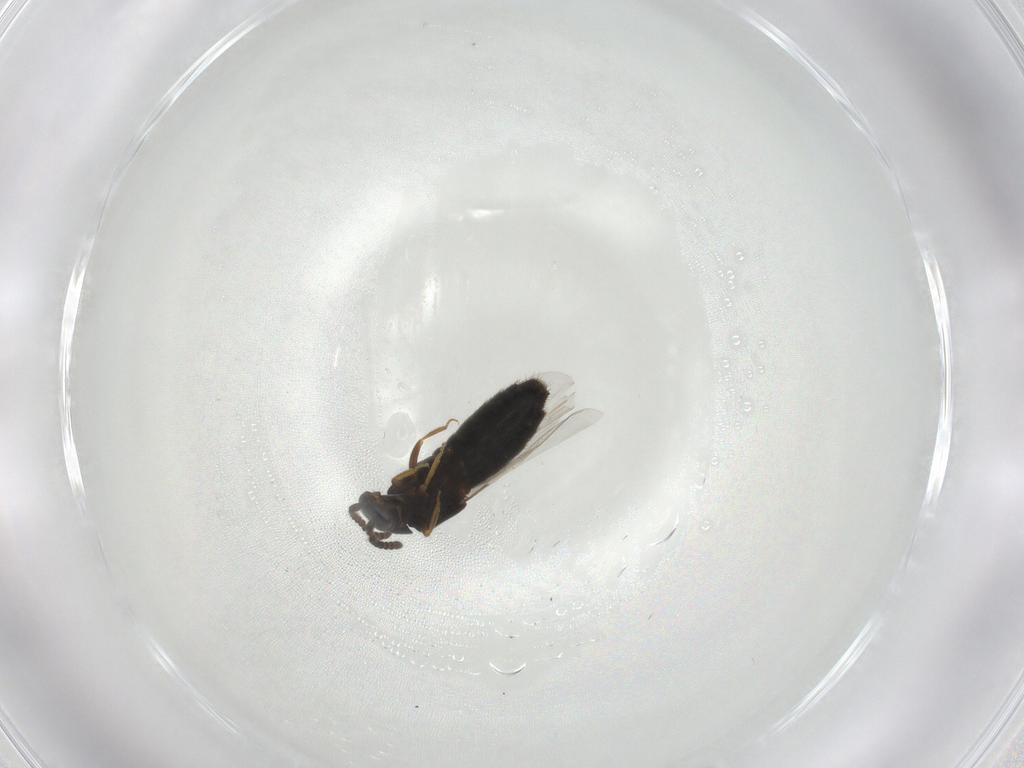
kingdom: Animalia
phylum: Arthropoda
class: Insecta
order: Coleoptera
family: Staphylinidae
